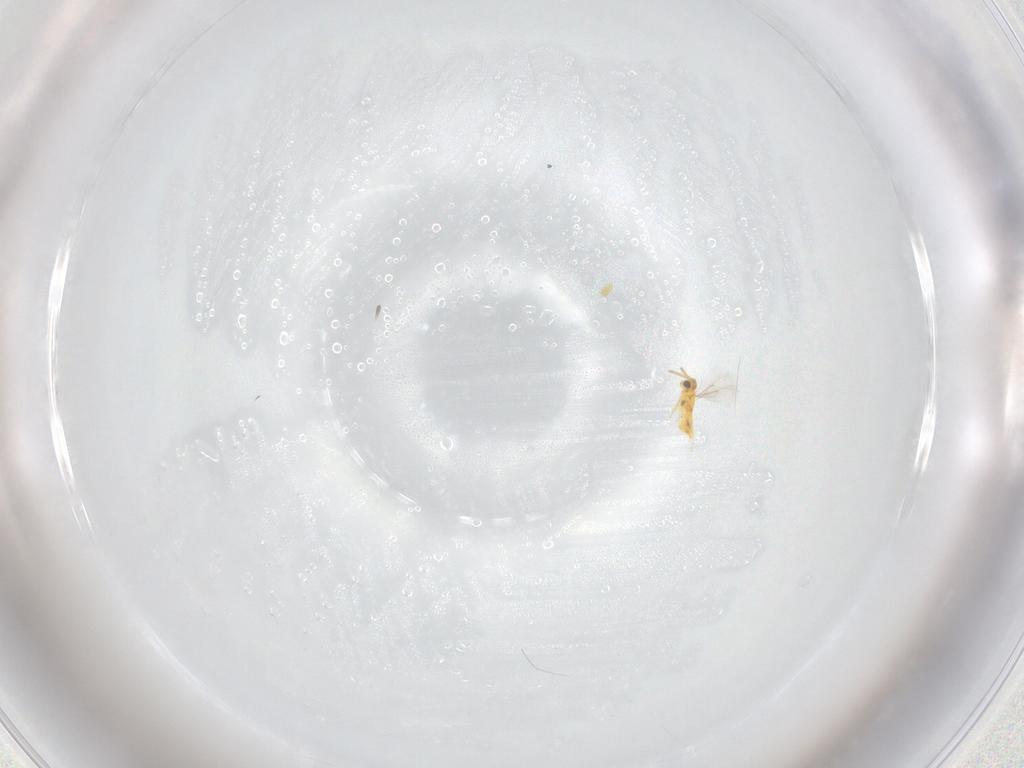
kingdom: Animalia
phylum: Arthropoda
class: Insecta
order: Hymenoptera
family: Aphelinidae
